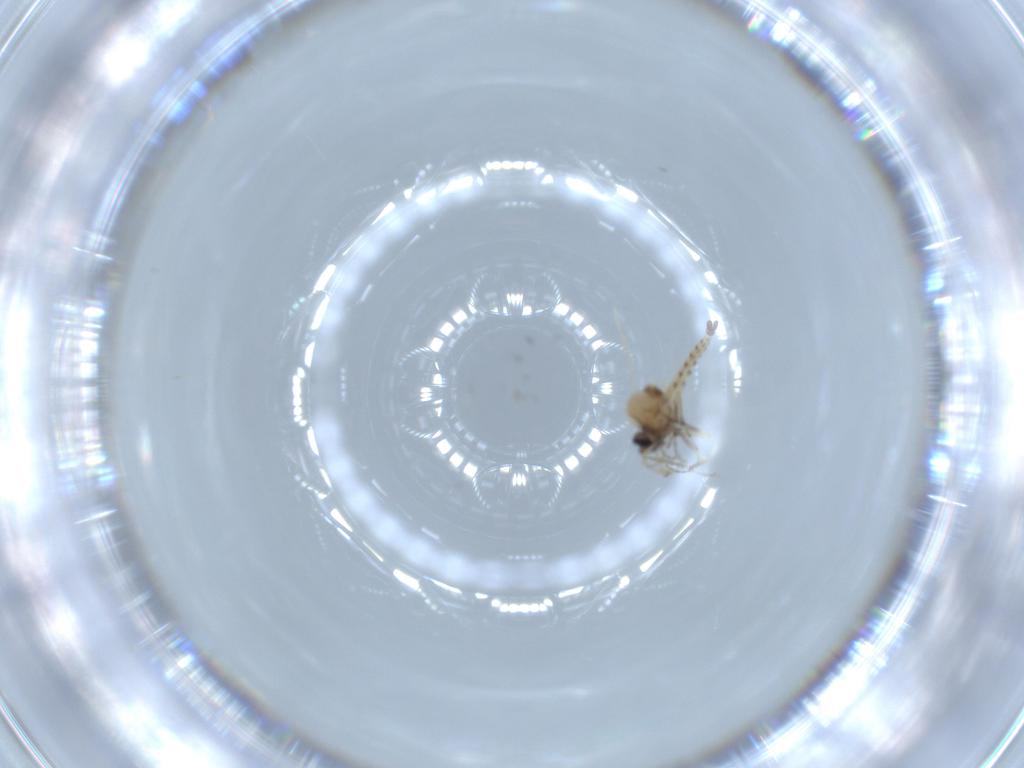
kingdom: Animalia
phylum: Arthropoda
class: Insecta
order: Diptera
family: Ceratopogonidae
